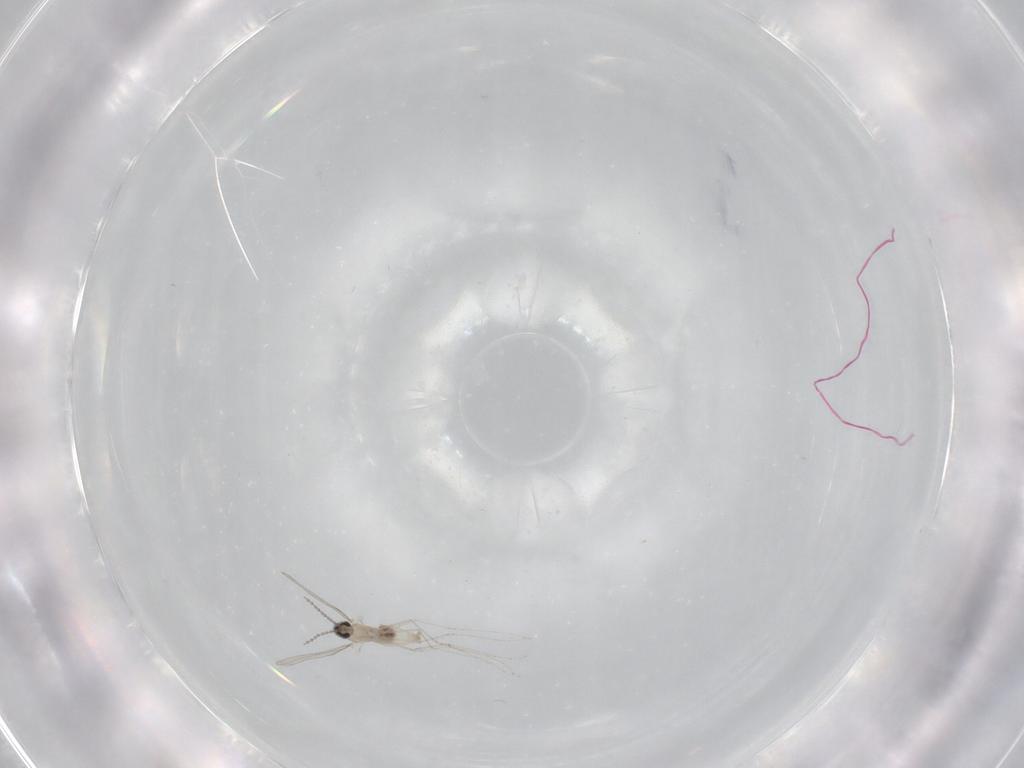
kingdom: Animalia
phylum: Arthropoda
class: Insecta
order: Diptera
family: Cecidomyiidae
